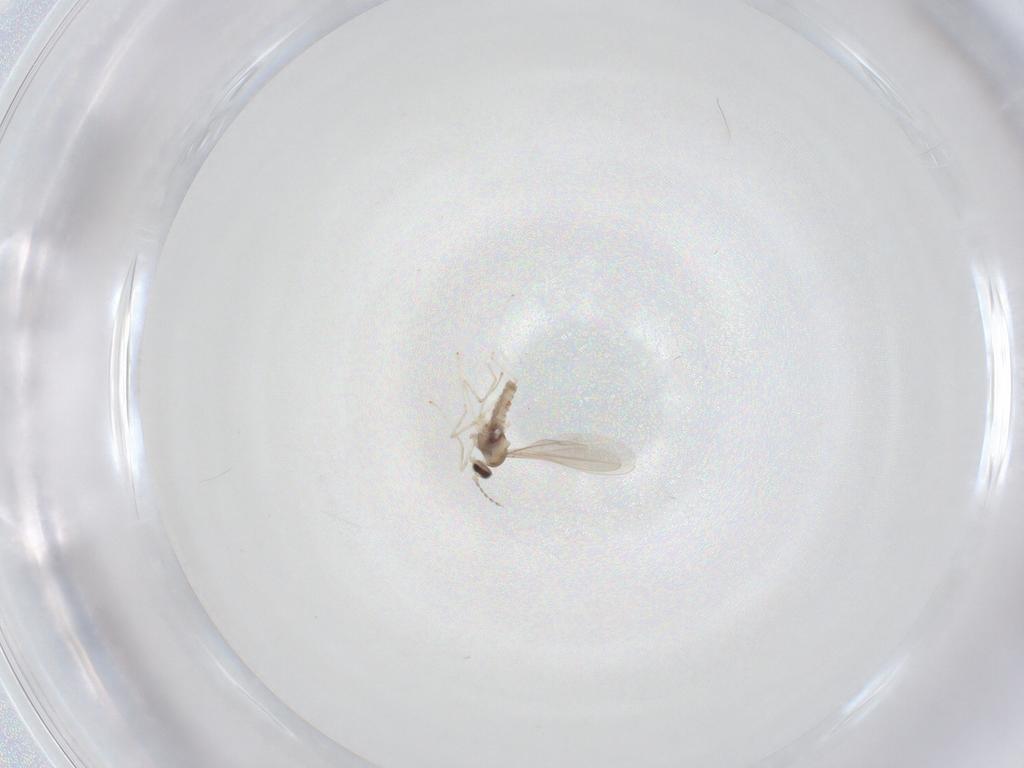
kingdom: Animalia
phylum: Arthropoda
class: Insecta
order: Diptera
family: Cecidomyiidae
